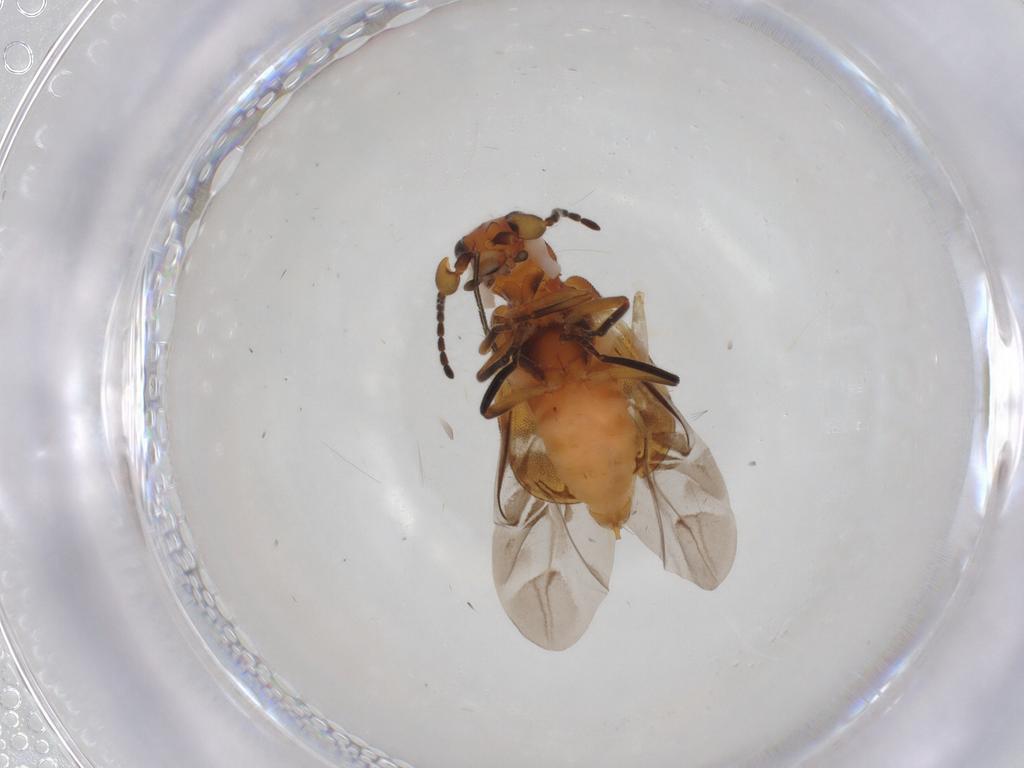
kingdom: Animalia
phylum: Arthropoda
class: Insecta
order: Coleoptera
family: Melyridae
